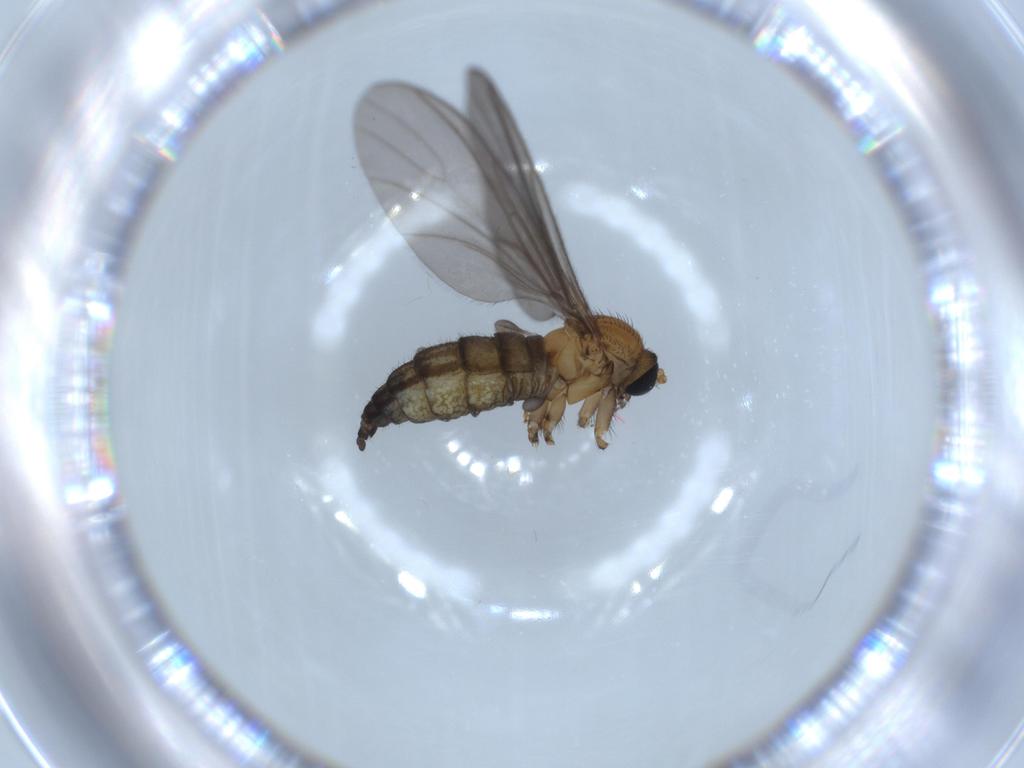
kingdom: Animalia
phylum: Arthropoda
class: Insecta
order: Diptera
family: Sciaridae
